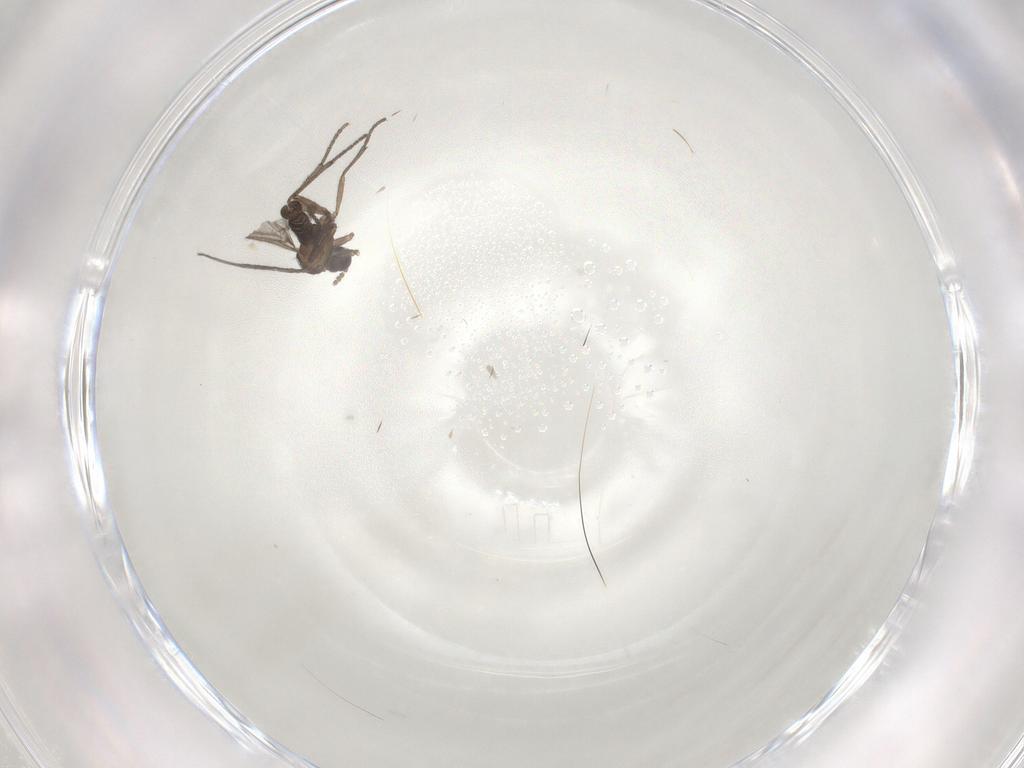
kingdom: Animalia
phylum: Arthropoda
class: Insecta
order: Diptera
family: Sciaridae
